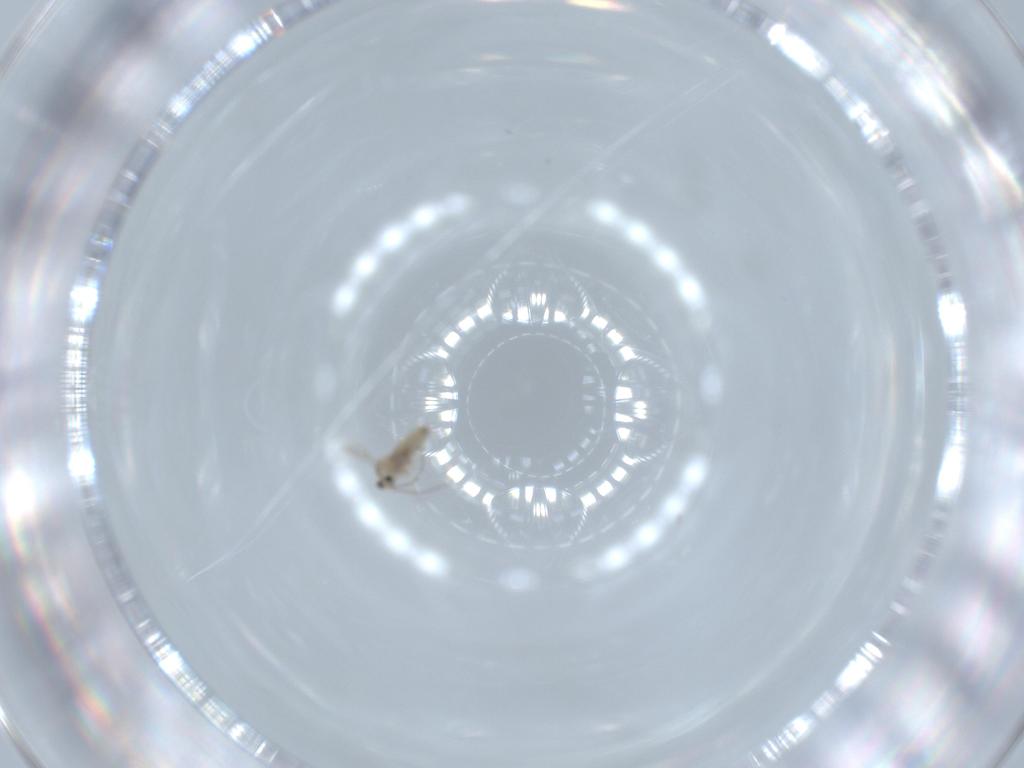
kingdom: Animalia
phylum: Arthropoda
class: Insecta
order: Diptera
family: Cecidomyiidae
